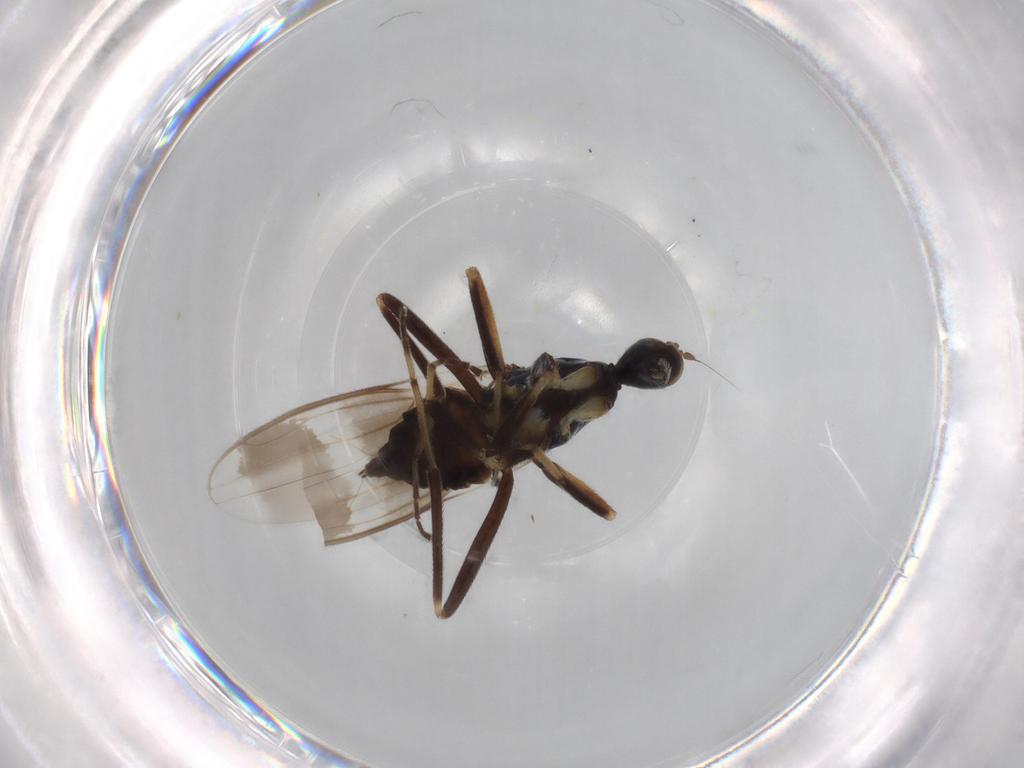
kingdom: Animalia
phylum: Arthropoda
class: Insecta
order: Diptera
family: Hybotidae
